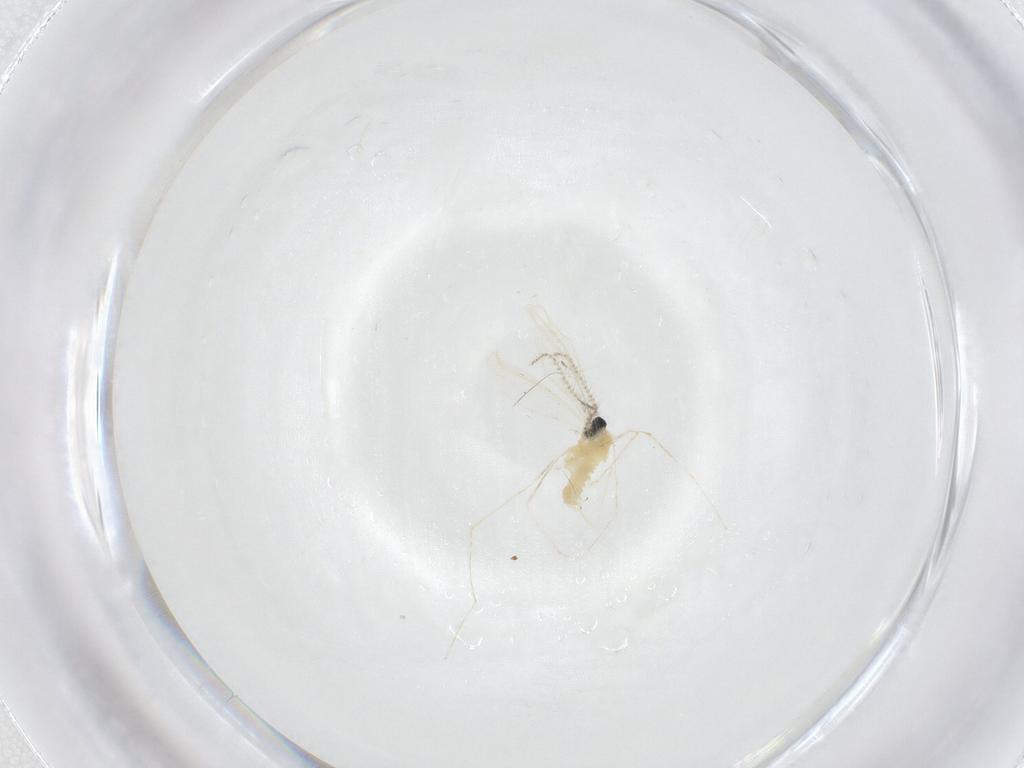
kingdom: Animalia
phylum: Arthropoda
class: Insecta
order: Diptera
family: Cecidomyiidae
